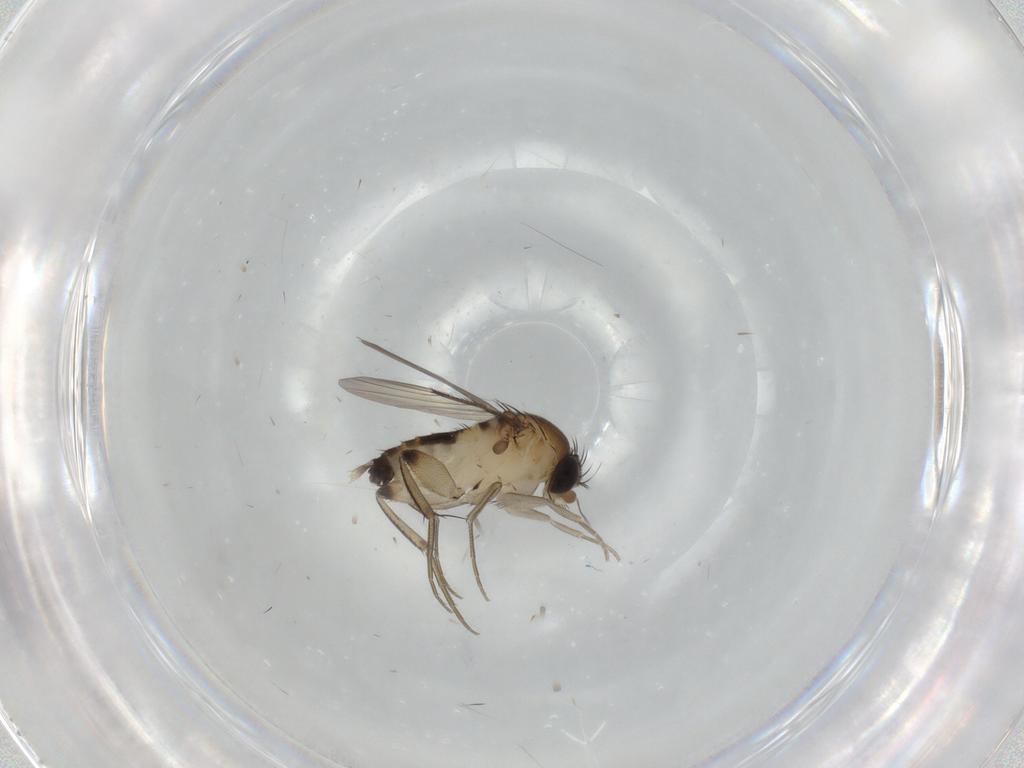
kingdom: Animalia
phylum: Arthropoda
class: Insecta
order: Diptera
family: Phoridae
